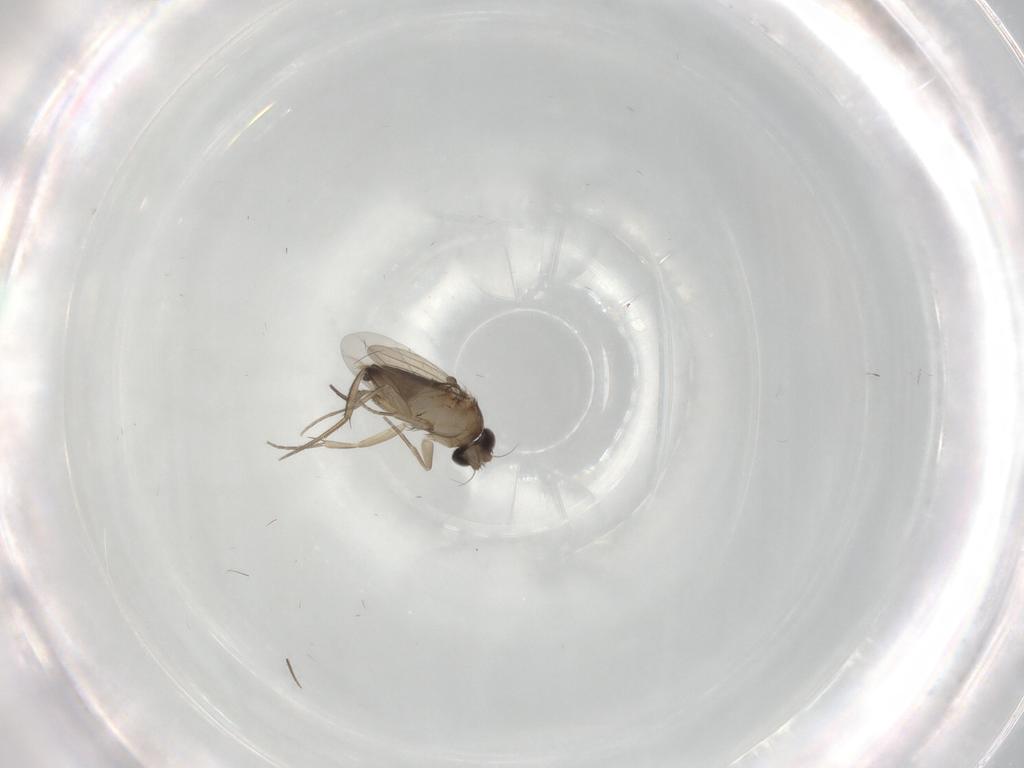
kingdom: Animalia
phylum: Arthropoda
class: Insecta
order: Diptera
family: Phoridae
